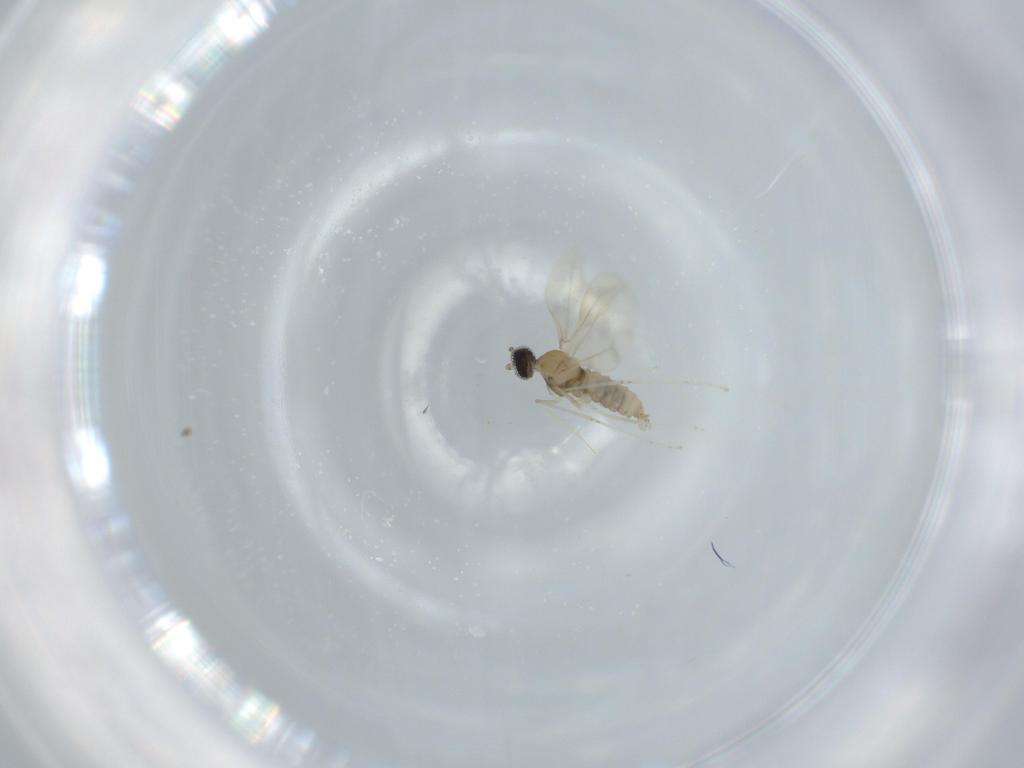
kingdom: Animalia
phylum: Arthropoda
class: Insecta
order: Diptera
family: Cecidomyiidae
